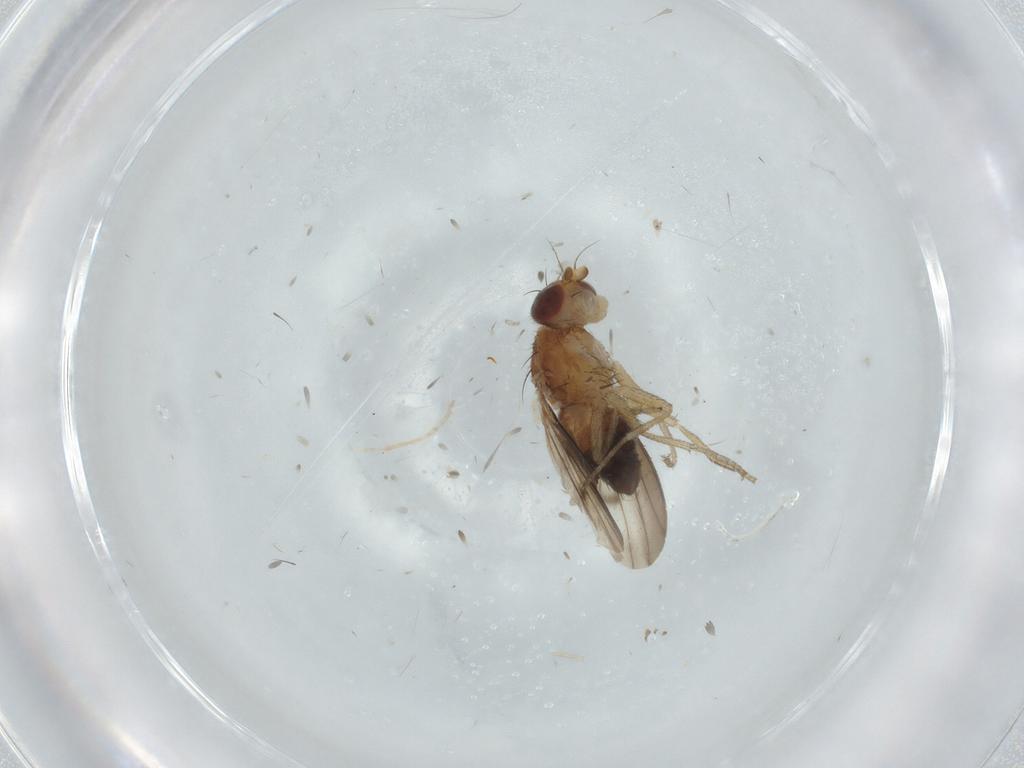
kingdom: Animalia
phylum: Arthropoda
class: Insecta
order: Diptera
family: Heleomyzidae
